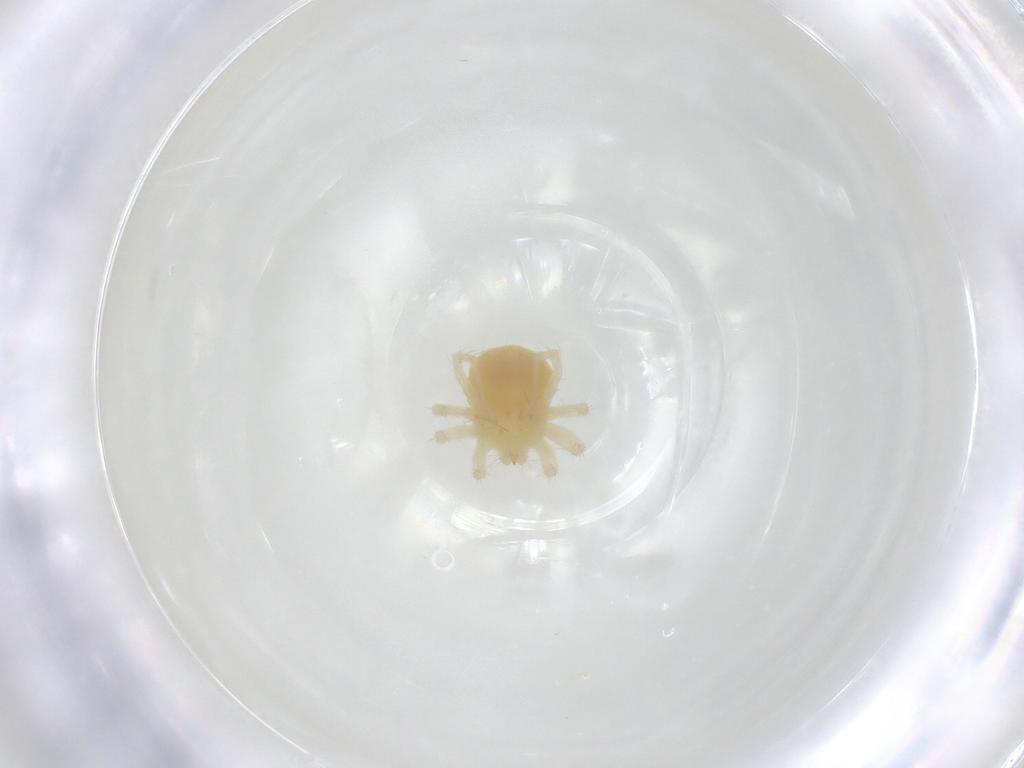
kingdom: Animalia
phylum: Arthropoda
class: Arachnida
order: Trombidiformes
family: Anystidae
